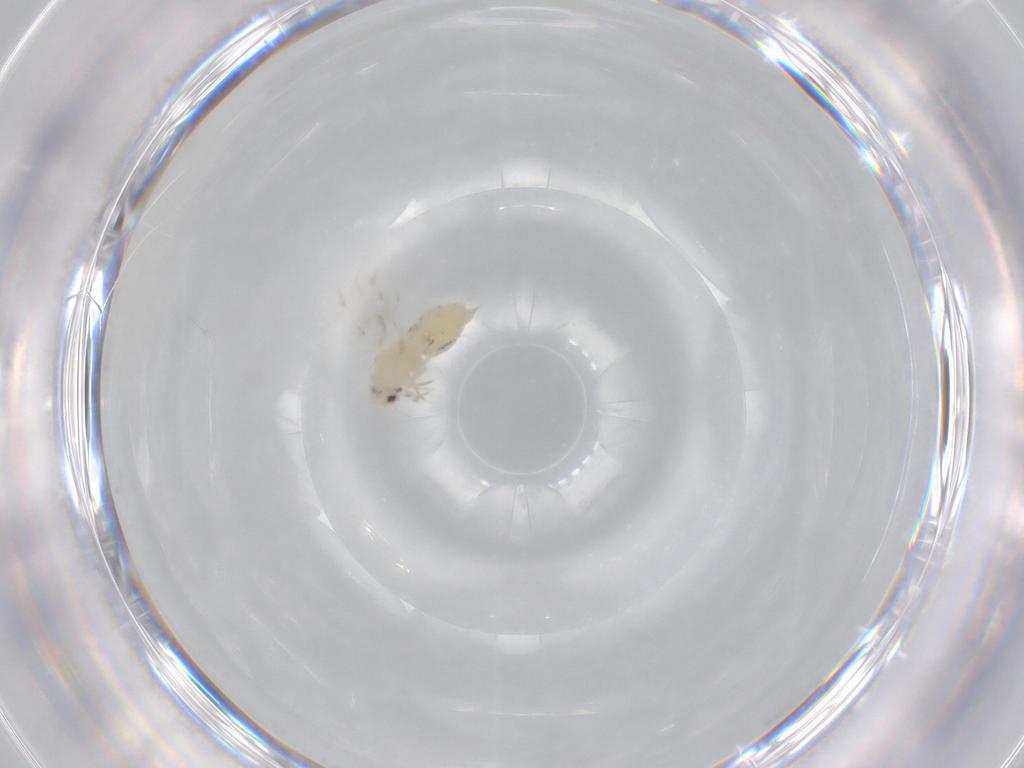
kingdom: Animalia
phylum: Arthropoda
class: Insecta
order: Hemiptera
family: Aleyrodidae
